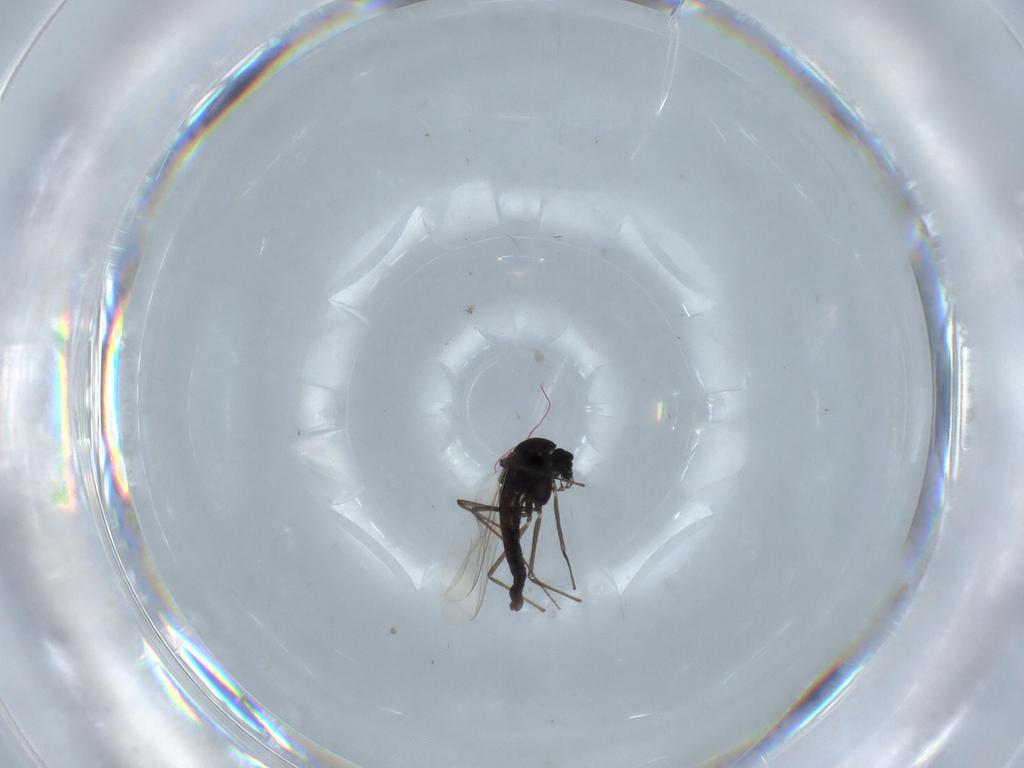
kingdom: Animalia
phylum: Arthropoda
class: Insecta
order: Diptera
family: Chironomidae
